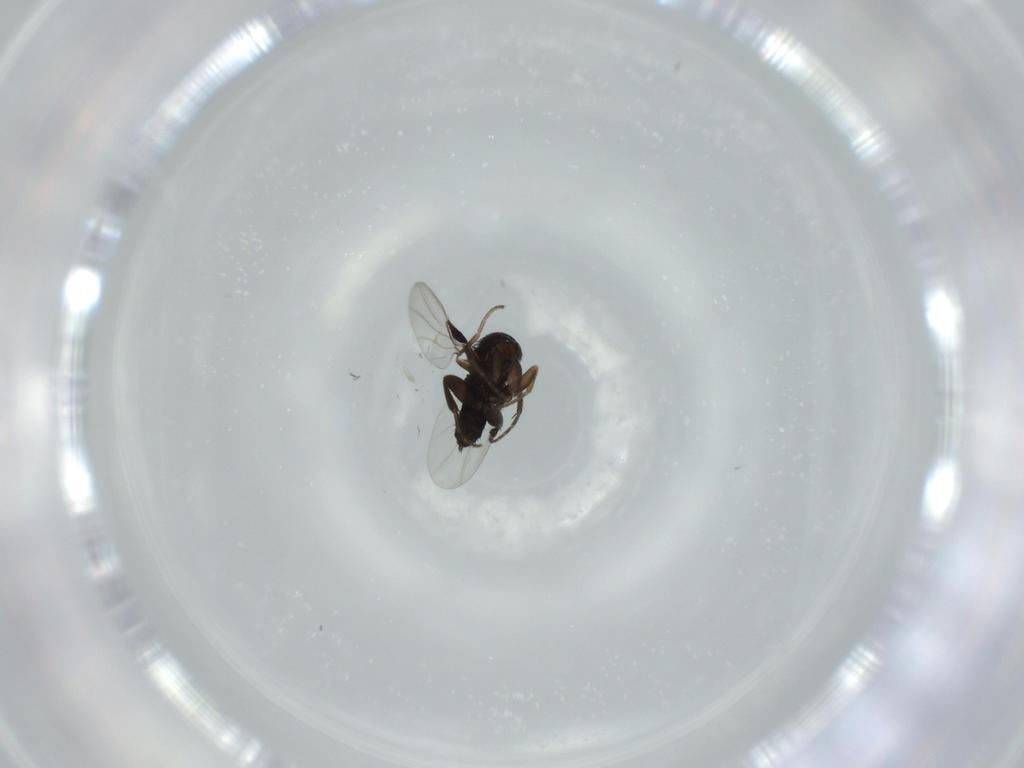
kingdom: Animalia
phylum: Arthropoda
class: Insecta
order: Diptera
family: Phoridae
